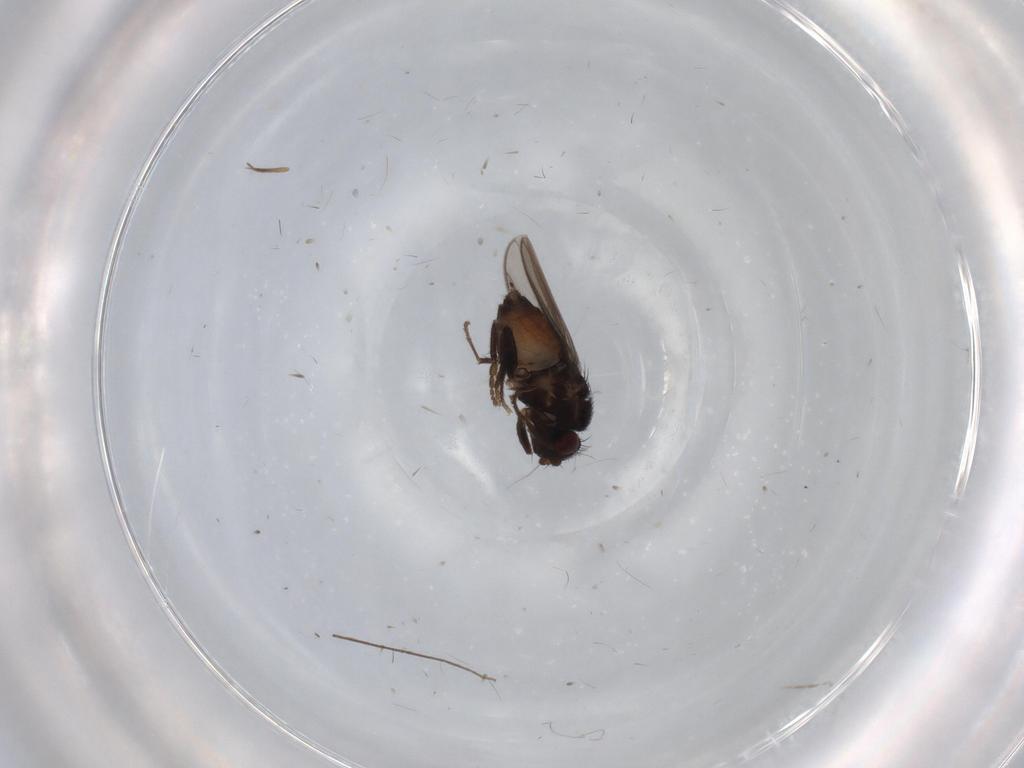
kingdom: Animalia
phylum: Arthropoda
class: Insecta
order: Diptera
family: Sphaeroceridae
